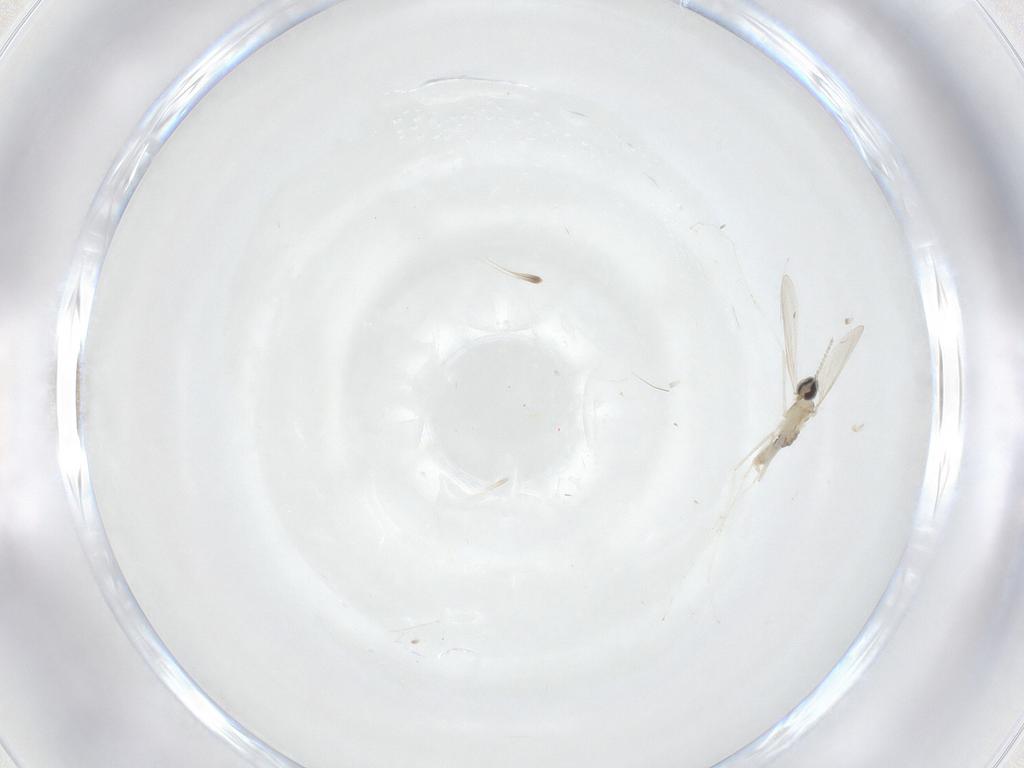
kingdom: Animalia
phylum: Arthropoda
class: Insecta
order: Diptera
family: Cecidomyiidae
